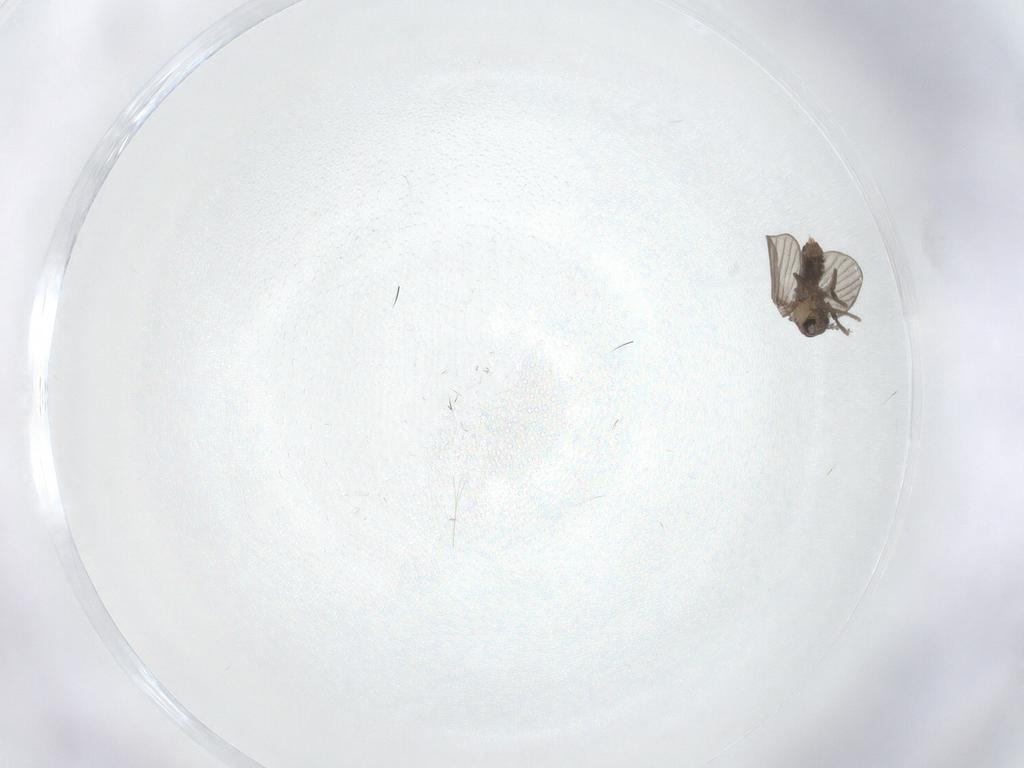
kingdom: Animalia
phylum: Arthropoda
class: Insecta
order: Diptera
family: Psychodidae
